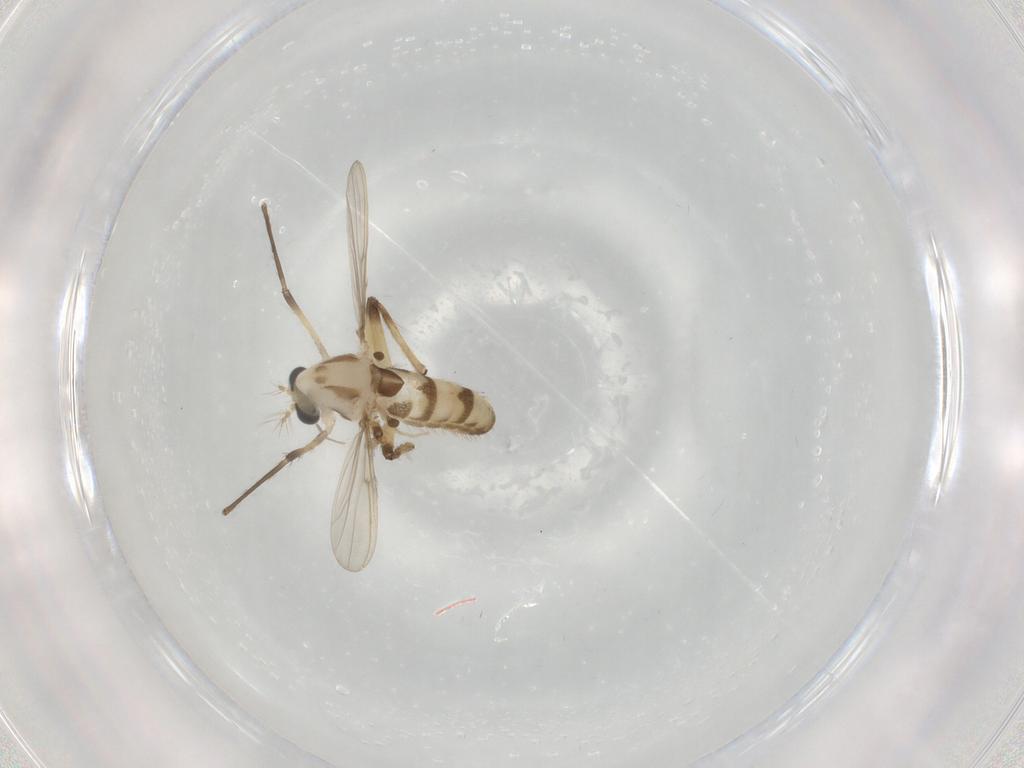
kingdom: Animalia
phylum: Arthropoda
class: Insecta
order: Diptera
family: Chironomidae
